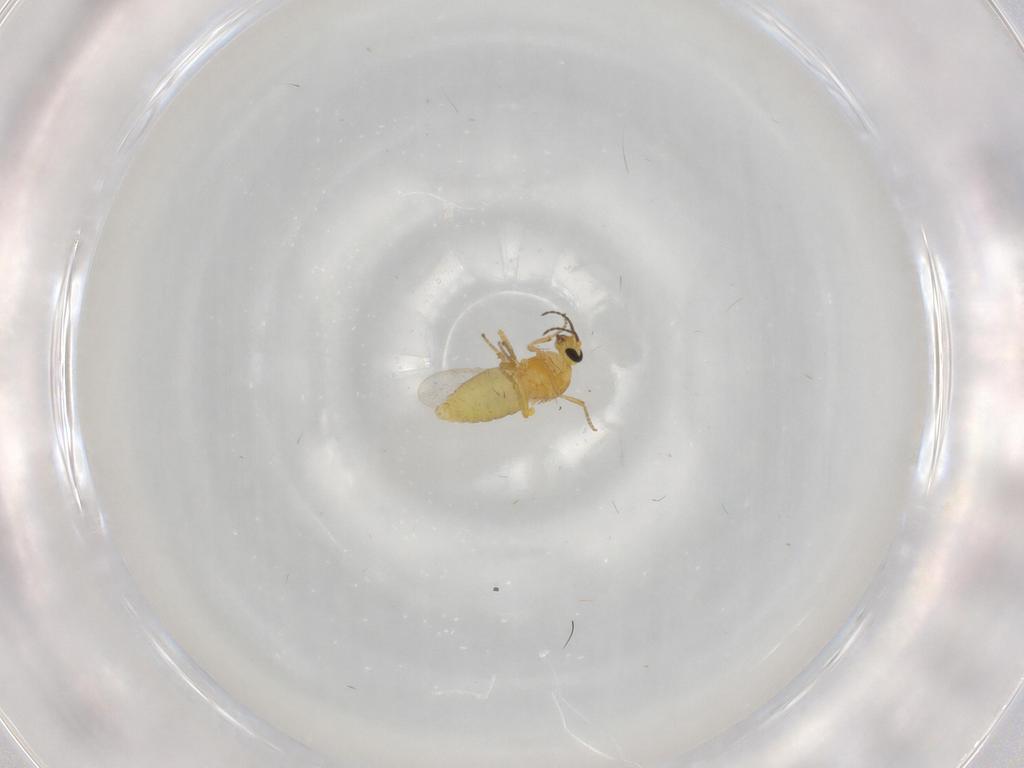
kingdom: Animalia
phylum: Arthropoda
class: Insecta
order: Diptera
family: Ceratopogonidae
